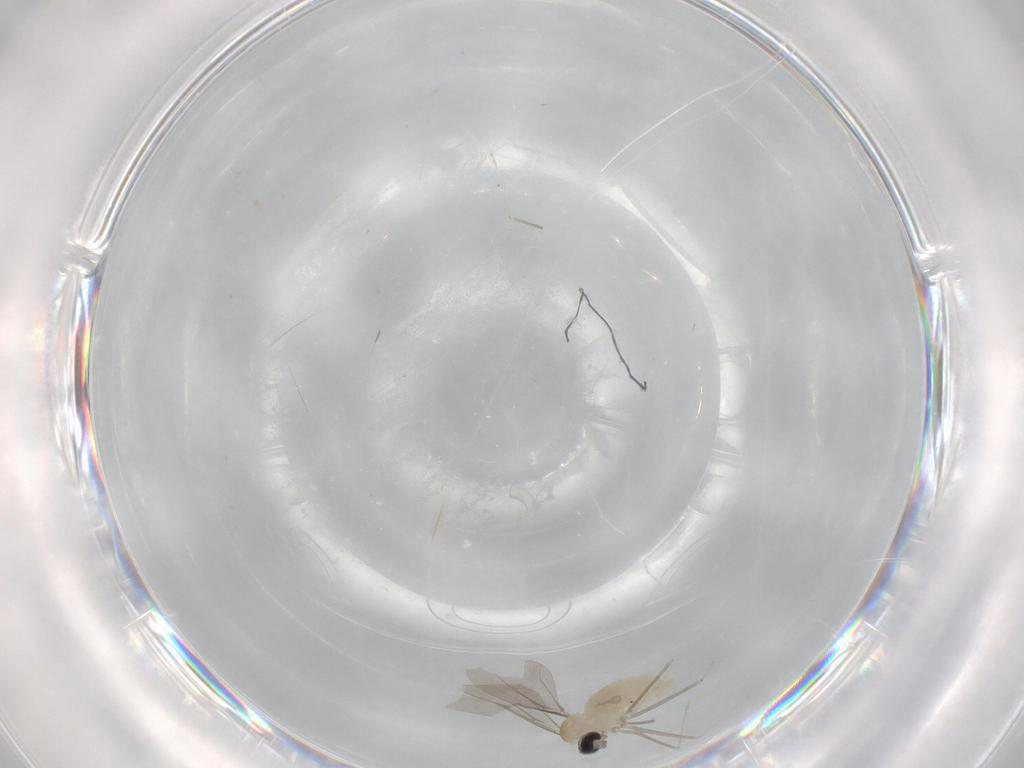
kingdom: Animalia
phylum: Arthropoda
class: Insecta
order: Diptera
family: Cecidomyiidae
